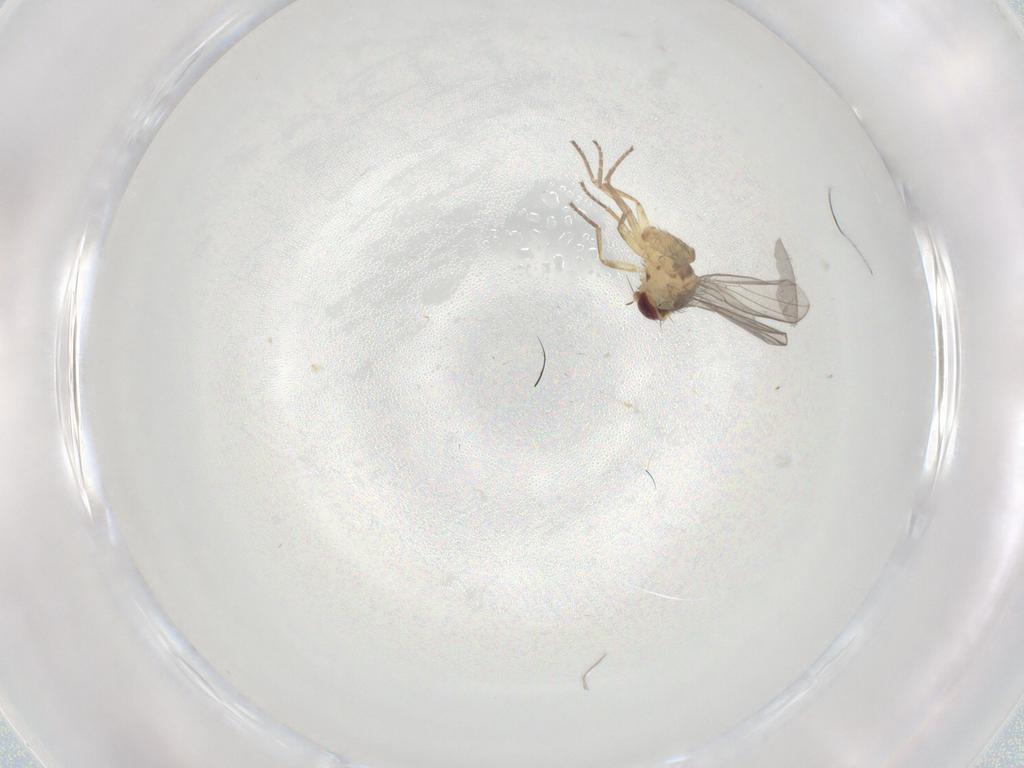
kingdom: Animalia
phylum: Arthropoda
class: Insecta
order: Diptera
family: Agromyzidae
